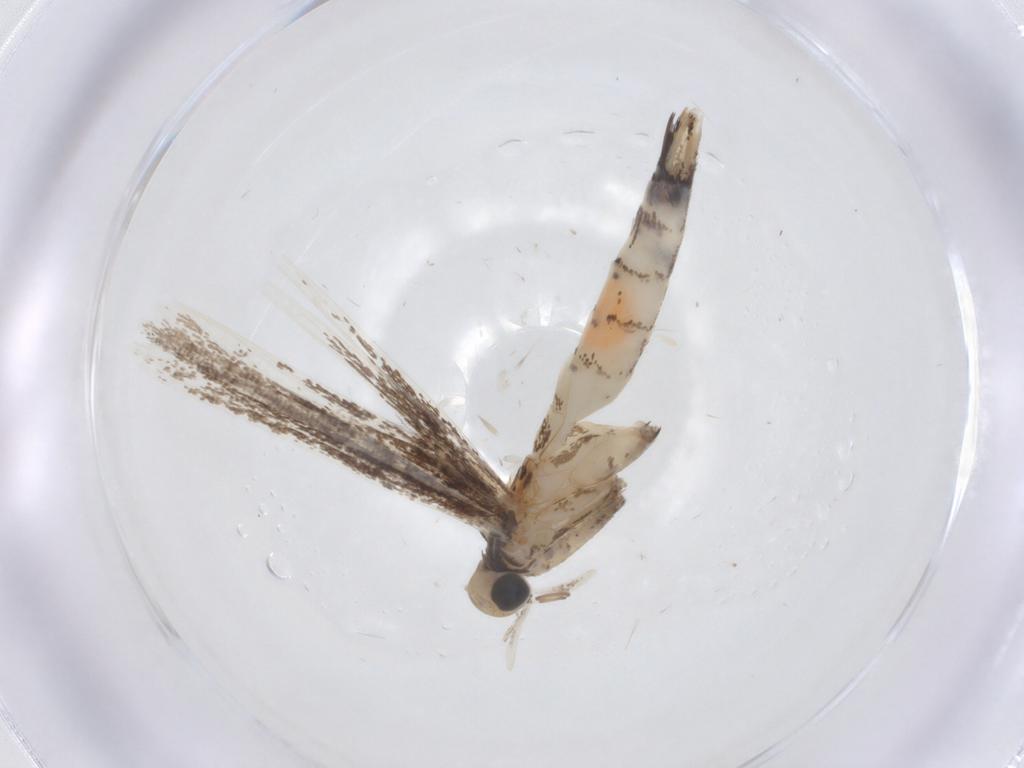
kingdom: Animalia
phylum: Arthropoda
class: Insecta
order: Lepidoptera
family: Gracillariidae
